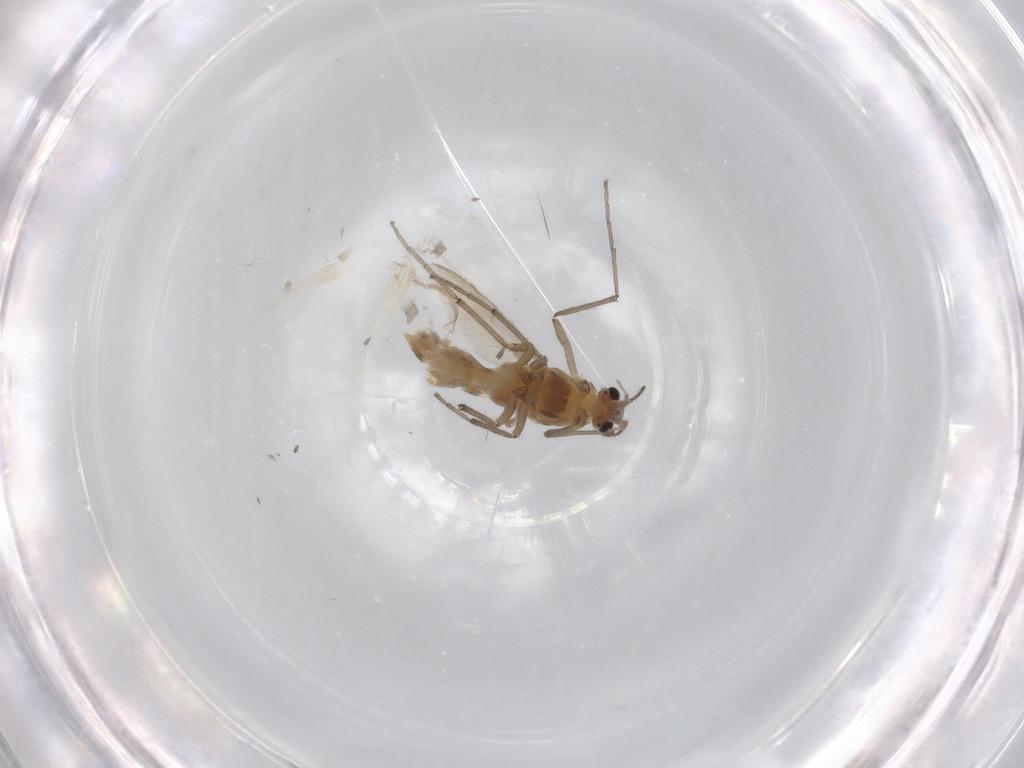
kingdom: Animalia
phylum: Arthropoda
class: Insecta
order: Diptera
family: Chironomidae
